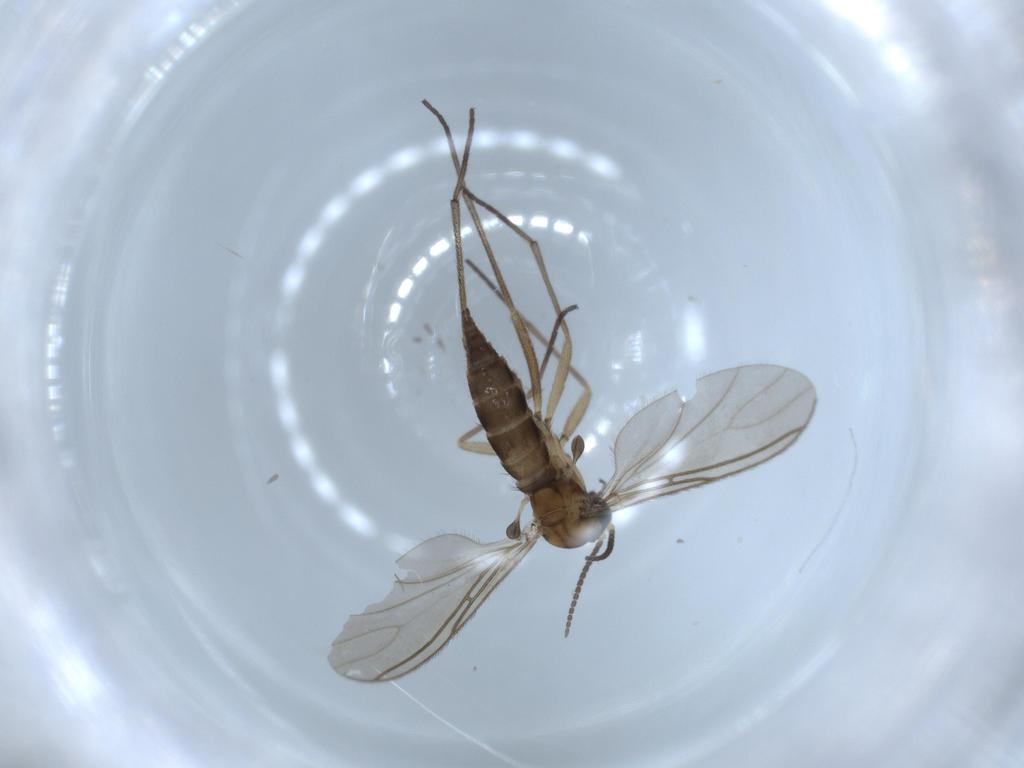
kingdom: Animalia
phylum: Arthropoda
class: Insecta
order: Diptera
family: Sciaridae
